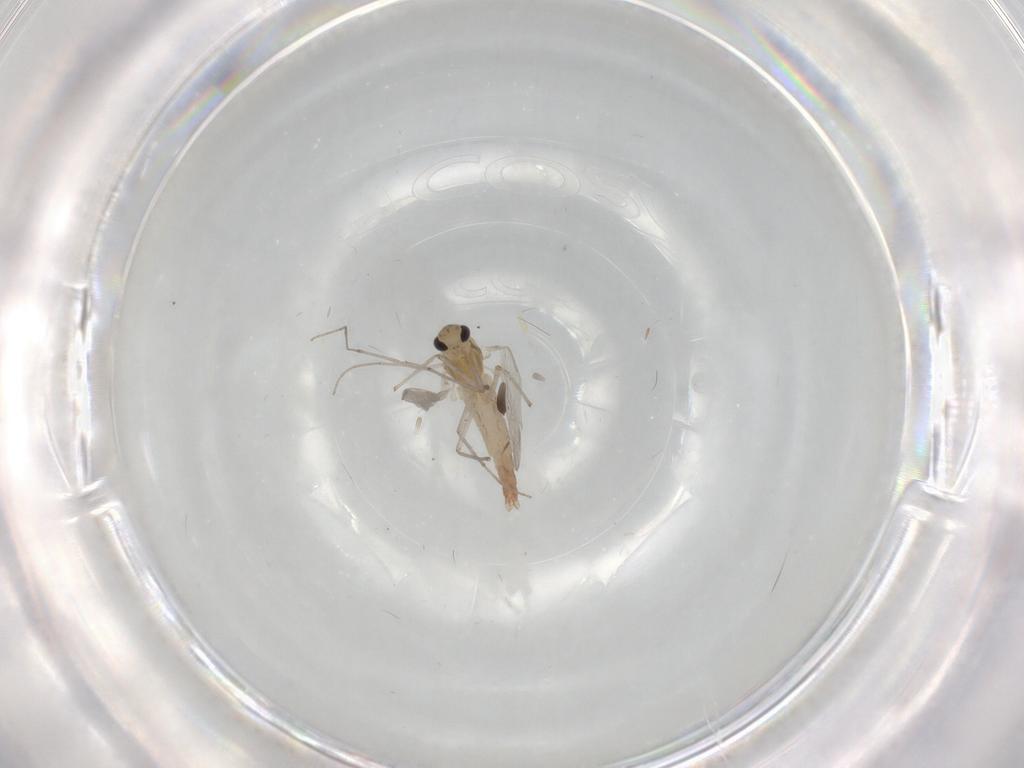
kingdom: Animalia
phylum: Arthropoda
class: Insecta
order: Diptera
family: Chironomidae
